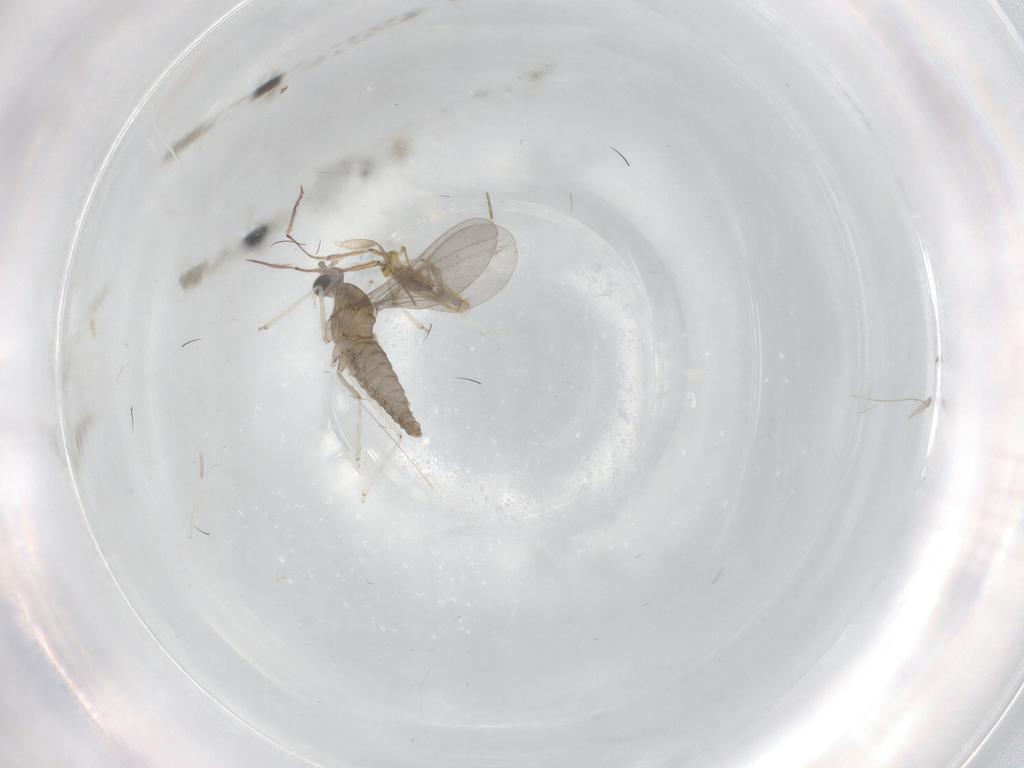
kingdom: Animalia
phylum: Arthropoda
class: Insecta
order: Diptera
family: Cecidomyiidae
